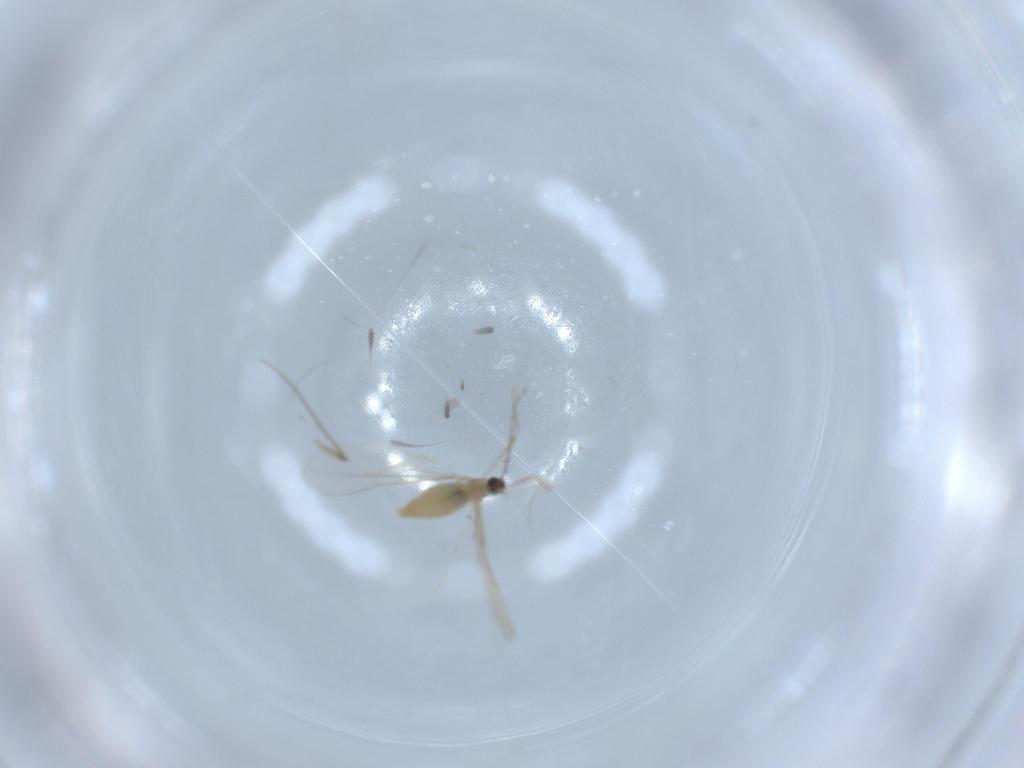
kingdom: Animalia
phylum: Arthropoda
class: Insecta
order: Diptera
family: Cecidomyiidae
